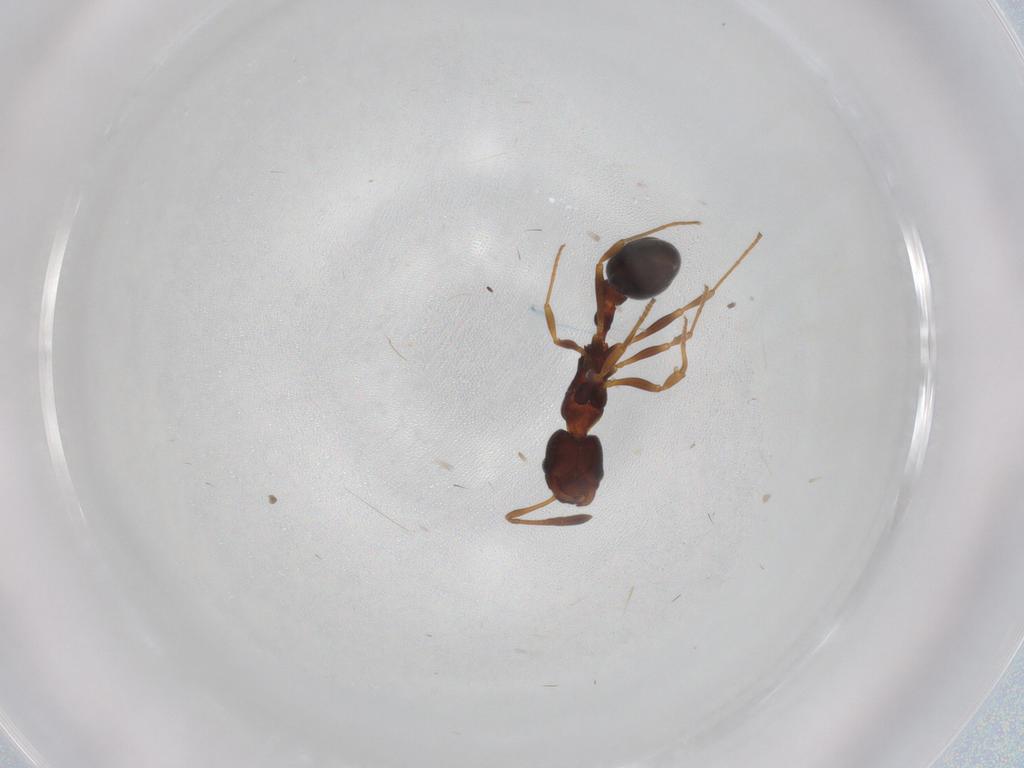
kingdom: Animalia
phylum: Arthropoda
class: Insecta
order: Hymenoptera
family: Formicidae
